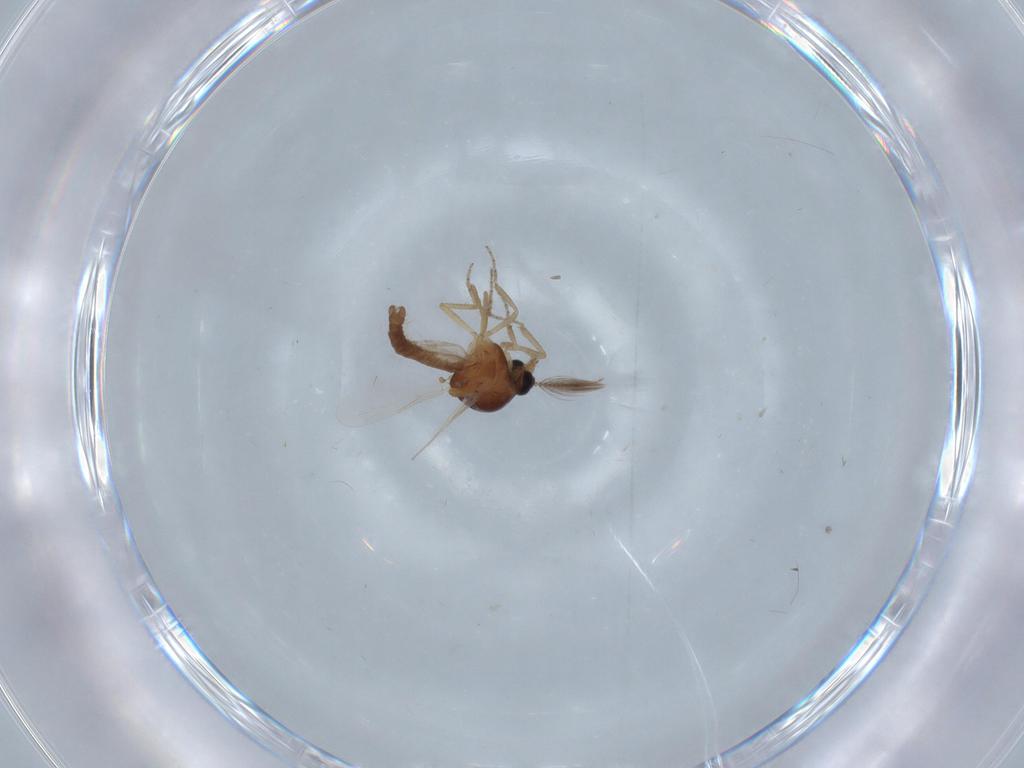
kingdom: Animalia
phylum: Arthropoda
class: Insecta
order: Diptera
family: Ceratopogonidae
